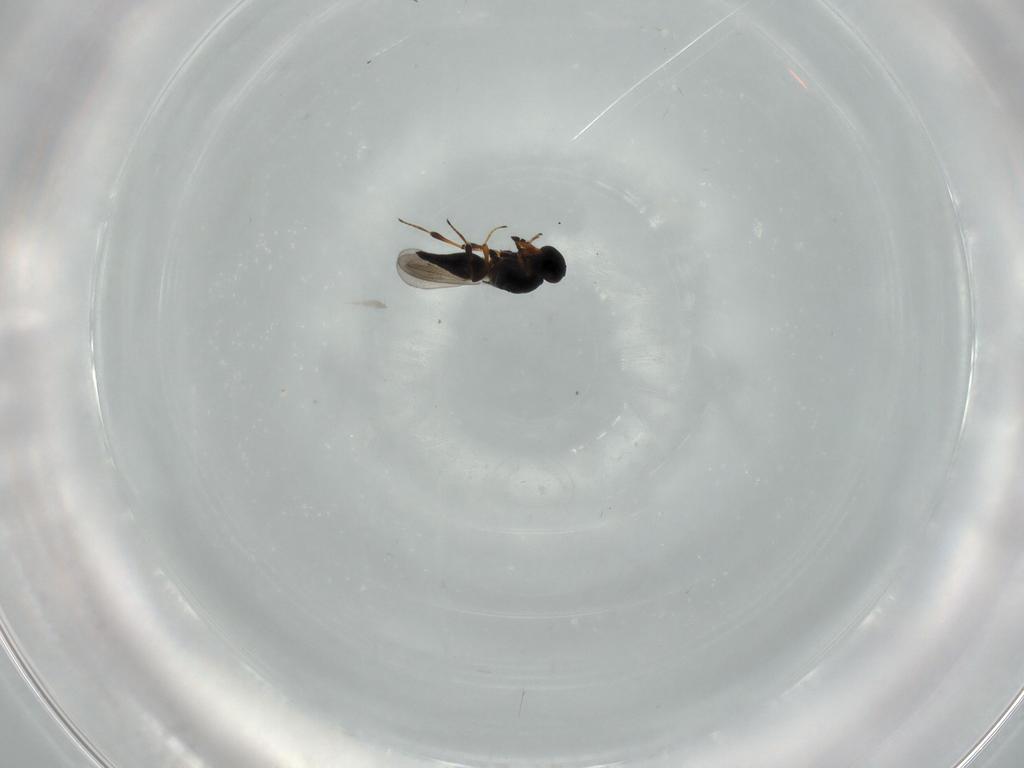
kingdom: Animalia
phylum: Arthropoda
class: Insecta
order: Hymenoptera
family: Platygastridae
